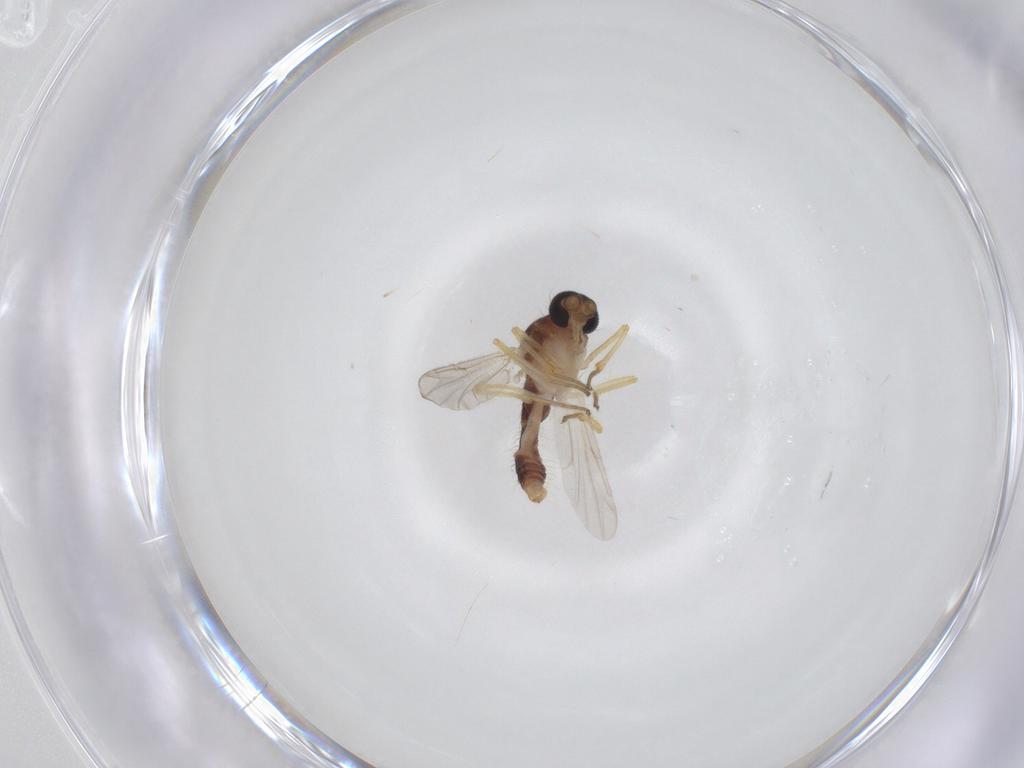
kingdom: Animalia
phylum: Arthropoda
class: Insecta
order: Diptera
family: Ceratopogonidae
